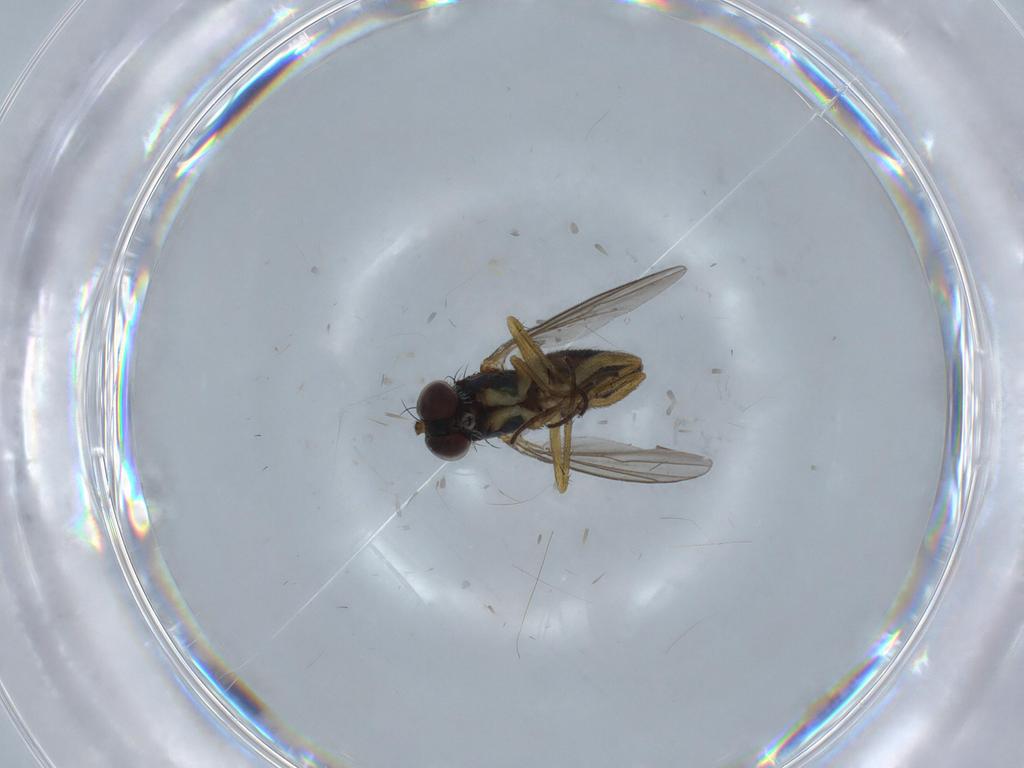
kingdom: Animalia
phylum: Arthropoda
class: Insecta
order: Diptera
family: Psychodidae
